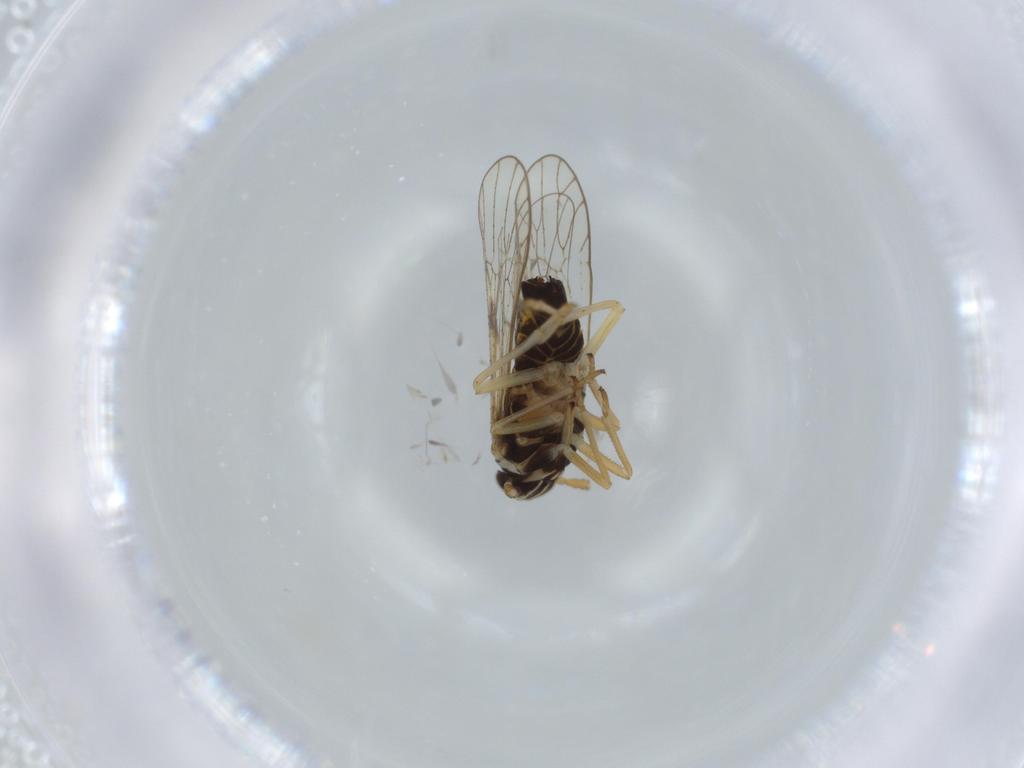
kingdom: Animalia
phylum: Arthropoda
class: Insecta
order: Hemiptera
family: Aleyrodidae
